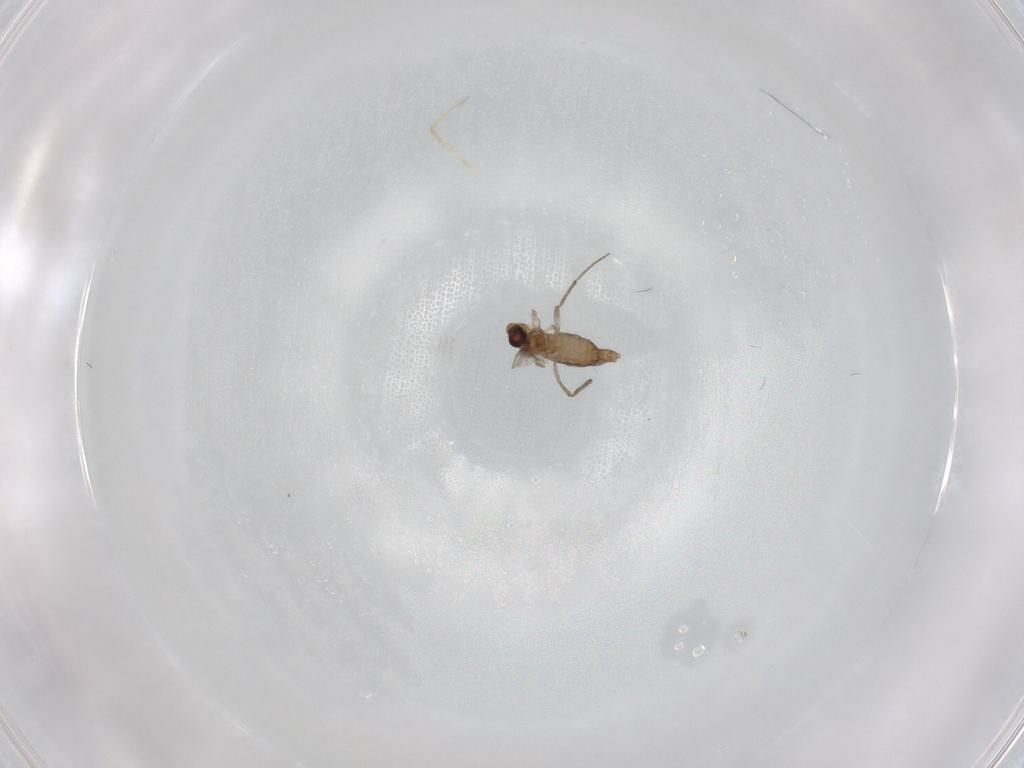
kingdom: Animalia
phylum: Arthropoda
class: Insecta
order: Diptera
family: Chironomidae
